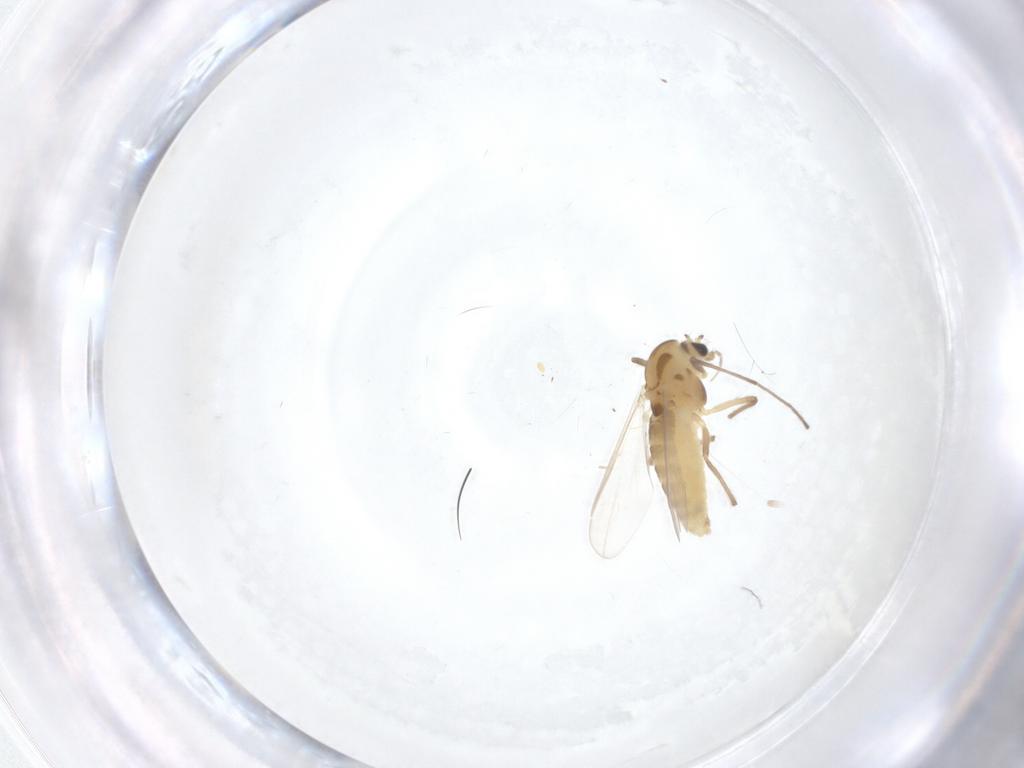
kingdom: Animalia
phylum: Arthropoda
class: Insecta
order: Diptera
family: Chironomidae
